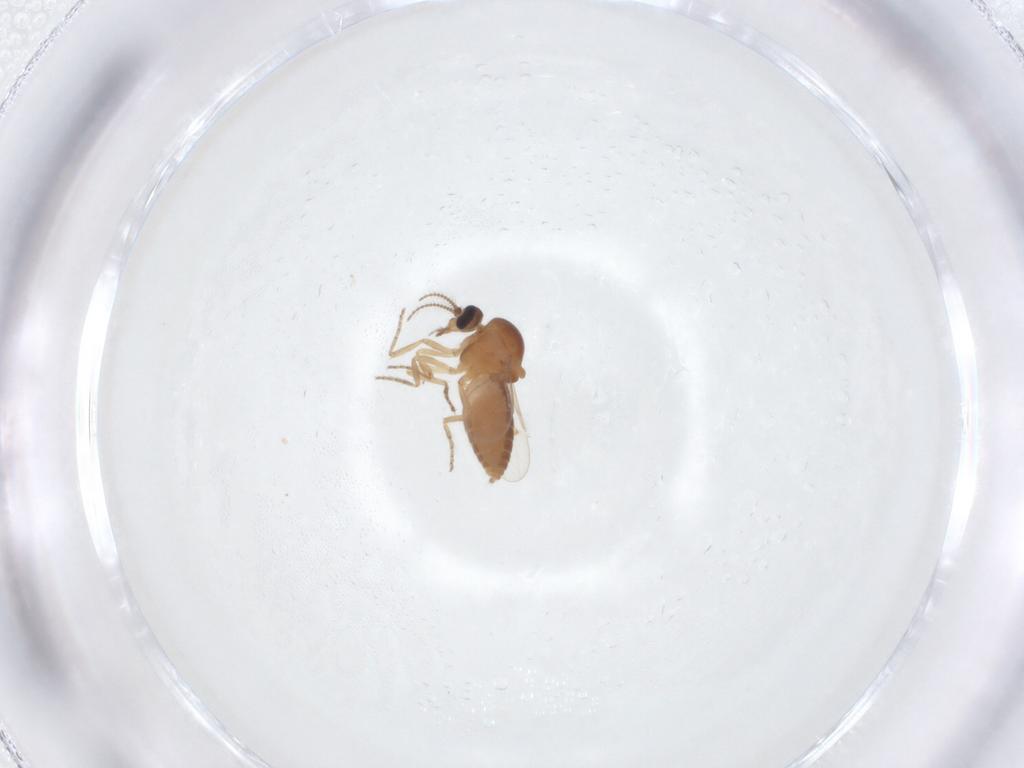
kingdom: Animalia
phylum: Arthropoda
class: Insecta
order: Diptera
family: Ceratopogonidae
